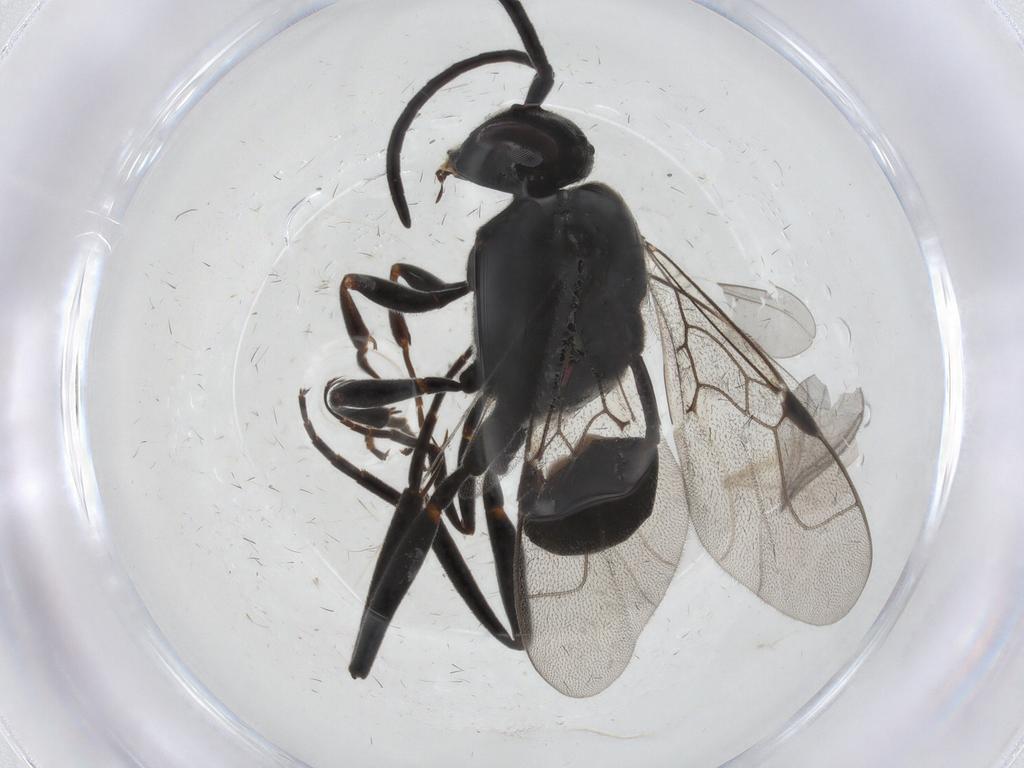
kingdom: Animalia
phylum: Arthropoda
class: Insecta
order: Hymenoptera
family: Evaniidae
